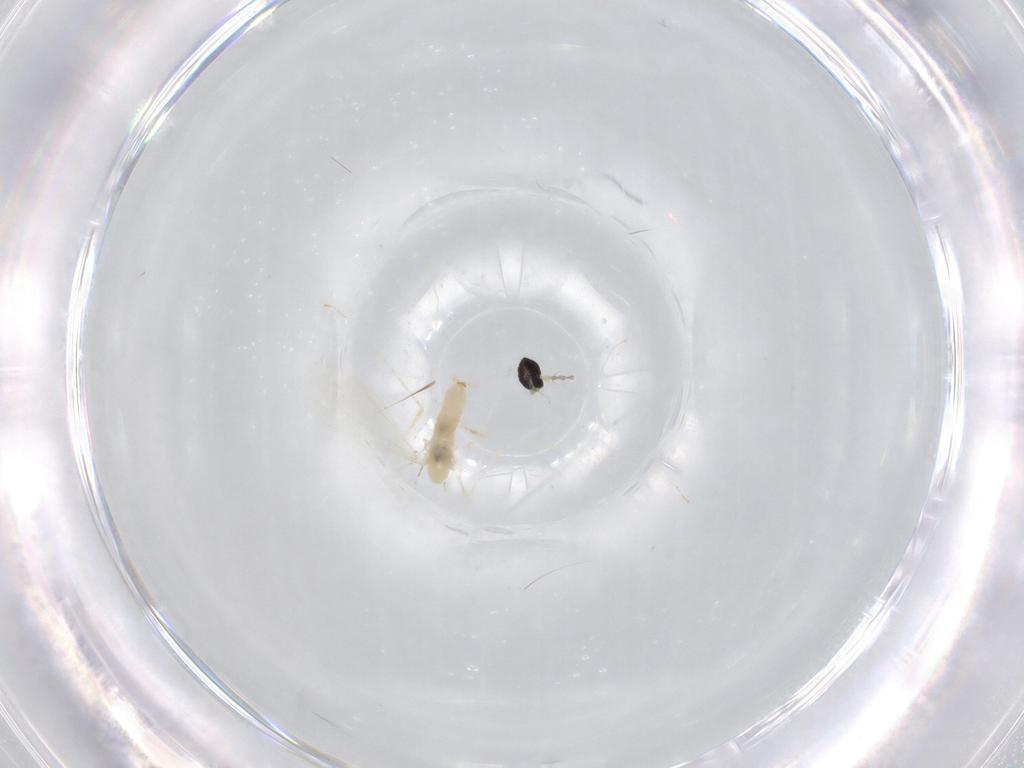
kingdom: Animalia
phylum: Arthropoda
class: Insecta
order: Diptera
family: Cecidomyiidae
